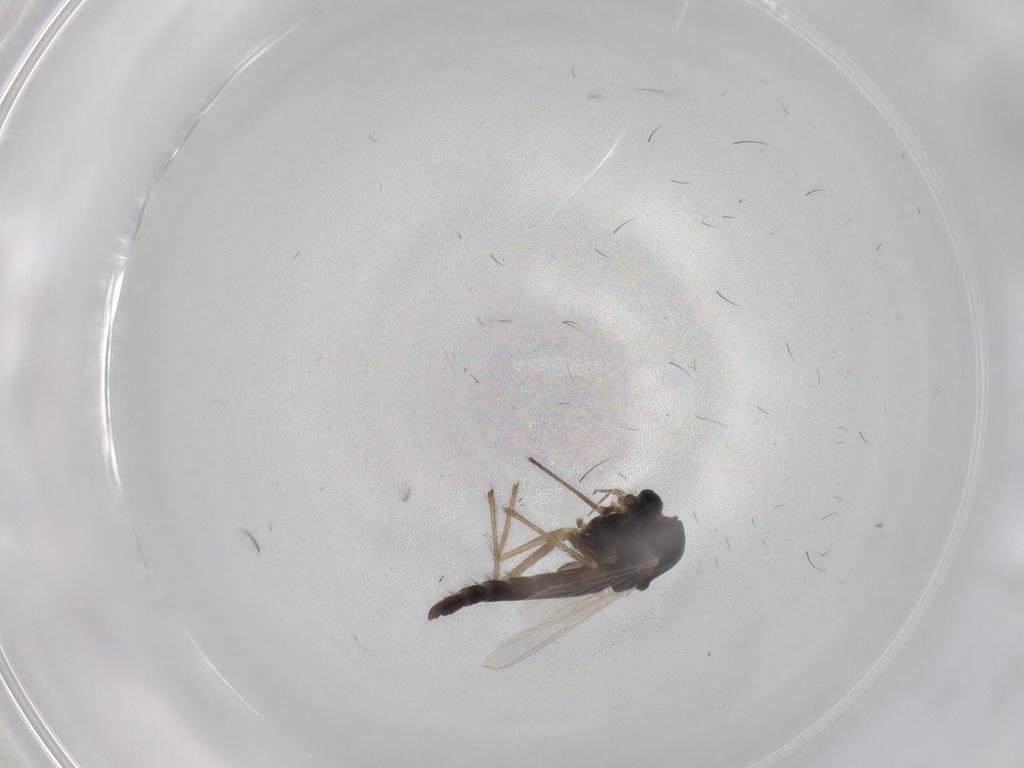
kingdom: Animalia
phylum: Arthropoda
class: Insecta
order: Diptera
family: Chironomidae
